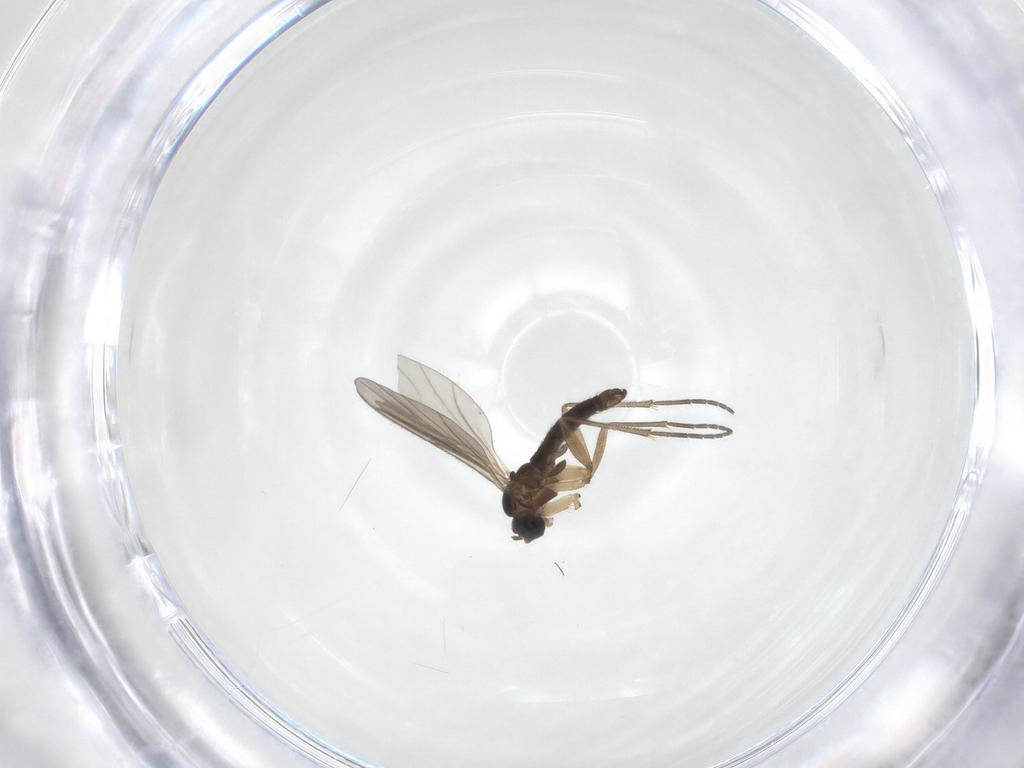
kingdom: Animalia
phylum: Arthropoda
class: Insecta
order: Diptera
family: Sciaridae
